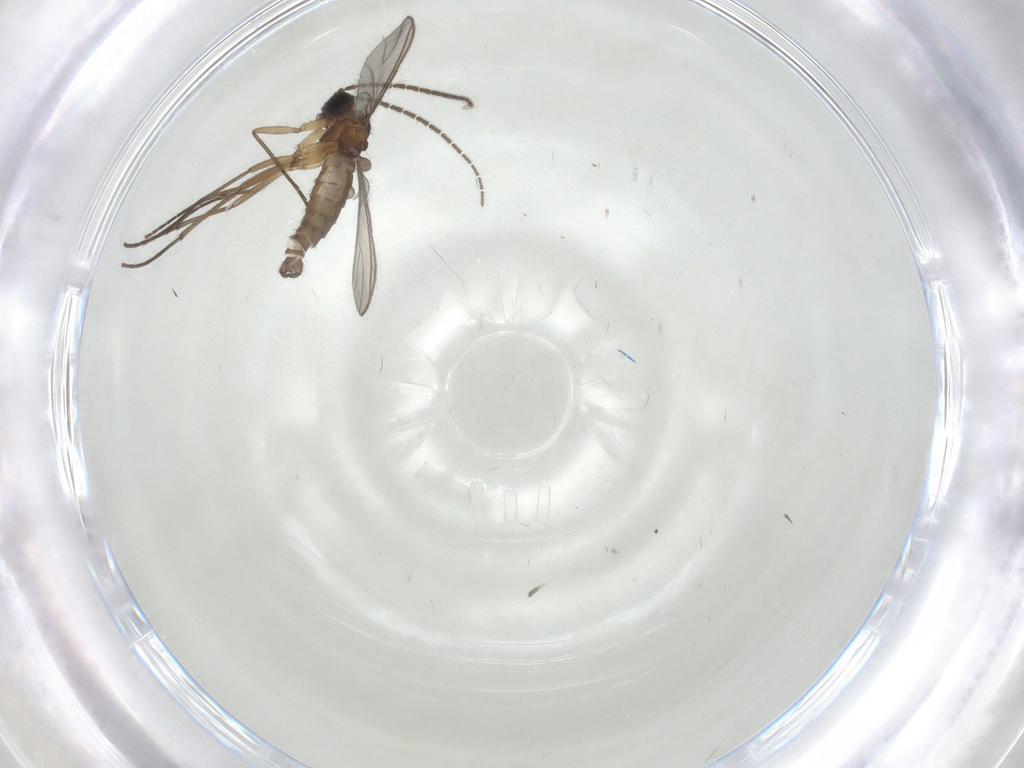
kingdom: Animalia
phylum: Arthropoda
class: Insecta
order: Diptera
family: Sciaridae
